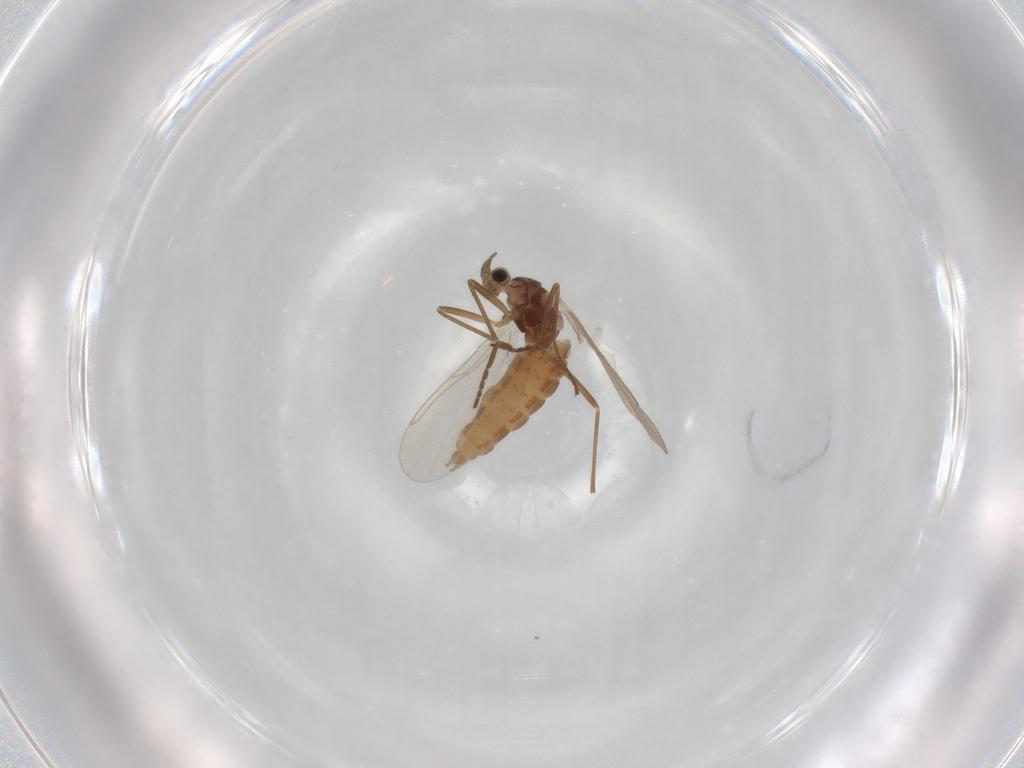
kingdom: Animalia
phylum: Arthropoda
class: Insecta
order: Diptera
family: Cecidomyiidae
